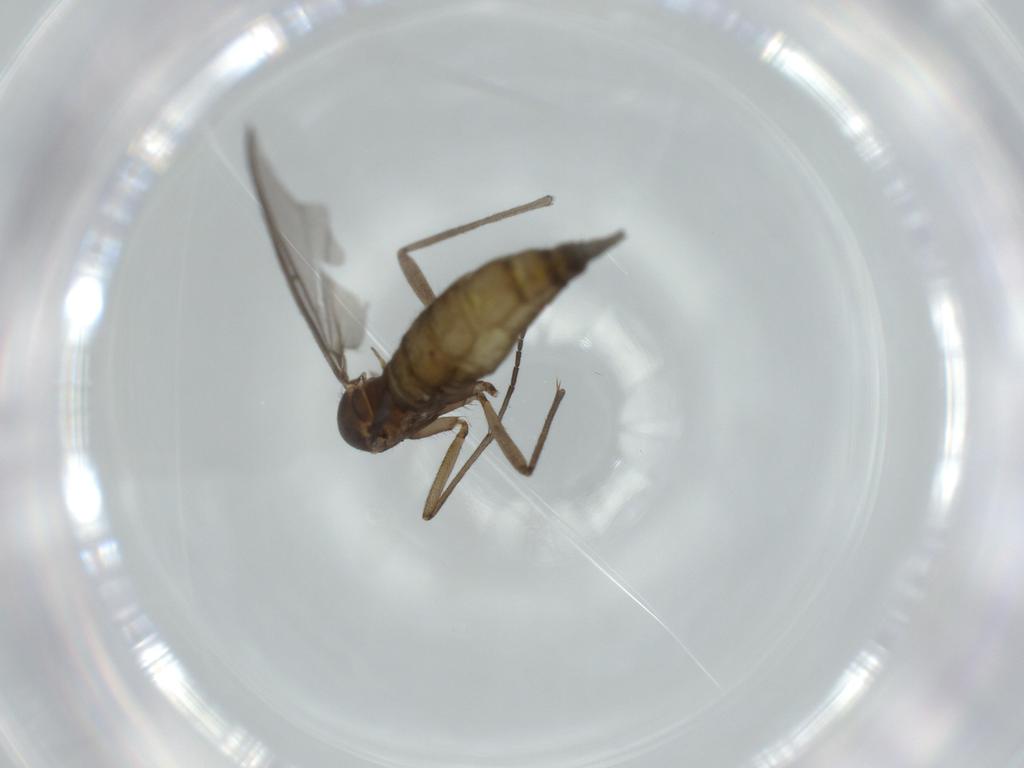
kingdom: Animalia
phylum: Arthropoda
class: Insecta
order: Diptera
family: Sciaridae
